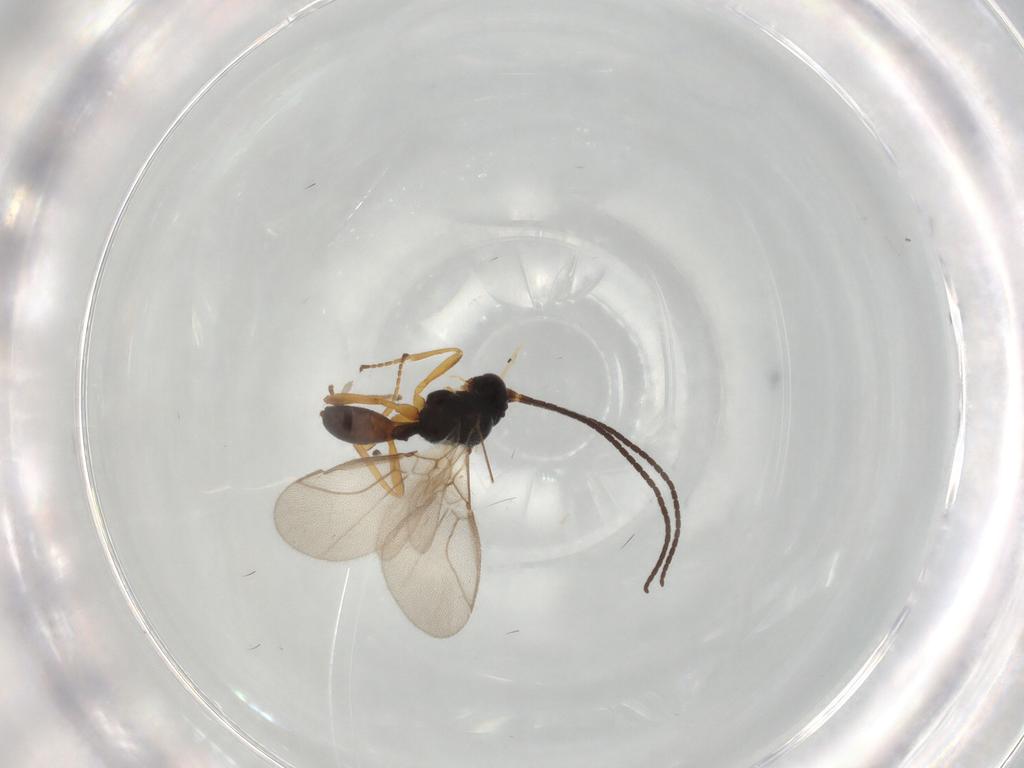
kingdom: Animalia
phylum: Arthropoda
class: Insecta
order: Hymenoptera
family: Braconidae
